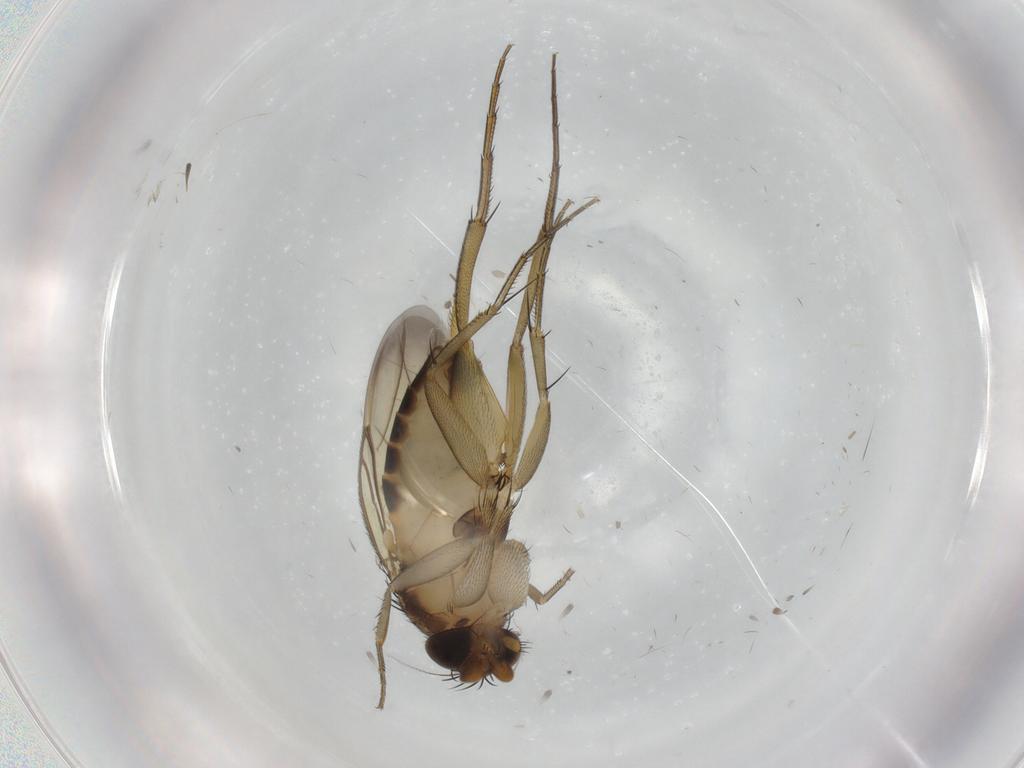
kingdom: Animalia
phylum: Arthropoda
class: Insecta
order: Diptera
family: Phoridae
